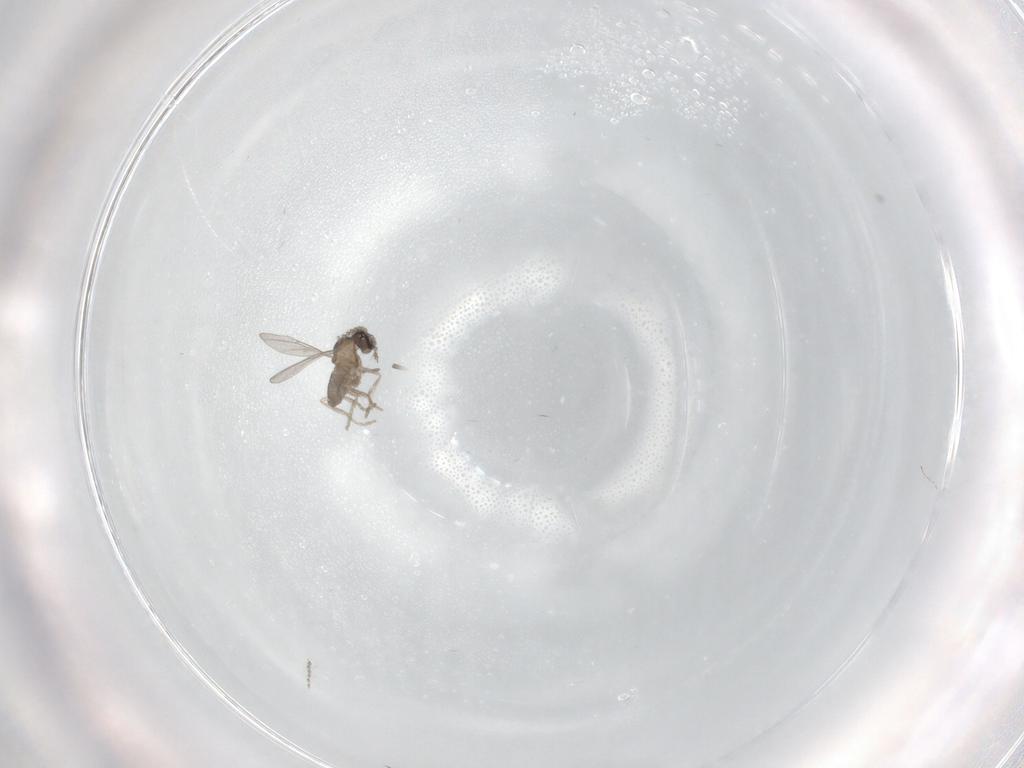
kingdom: Animalia
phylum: Arthropoda
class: Insecta
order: Diptera
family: Cecidomyiidae
